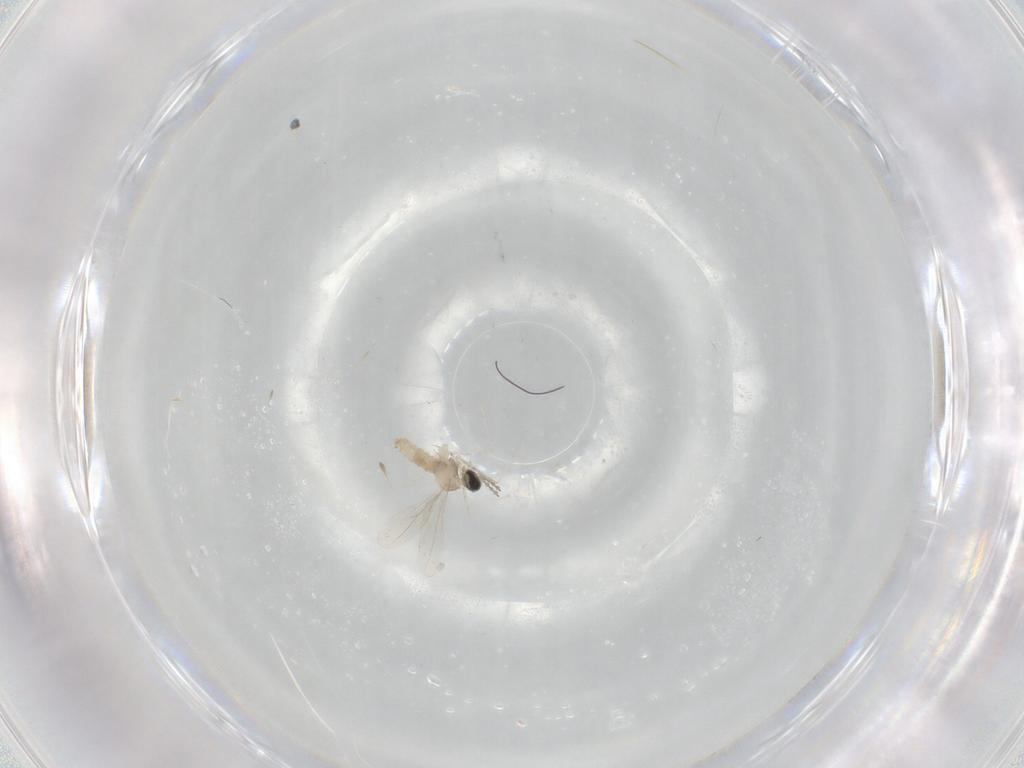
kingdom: Animalia
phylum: Arthropoda
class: Insecta
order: Diptera
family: Tabanidae
